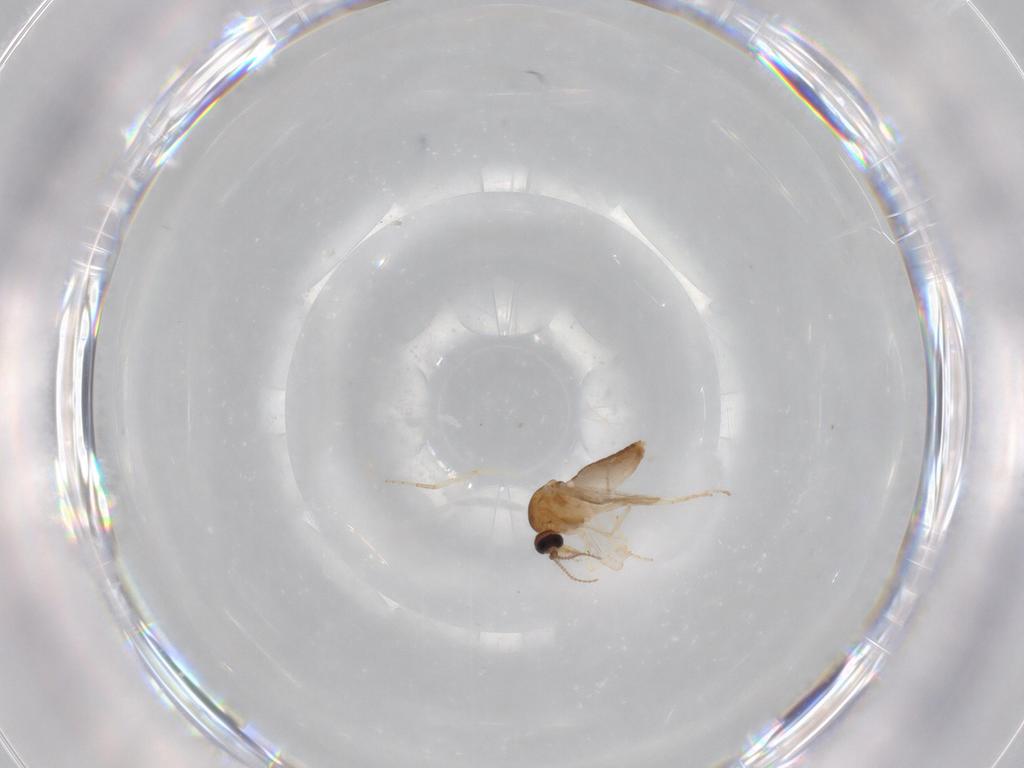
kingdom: Animalia
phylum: Arthropoda
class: Insecta
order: Diptera
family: Ceratopogonidae
